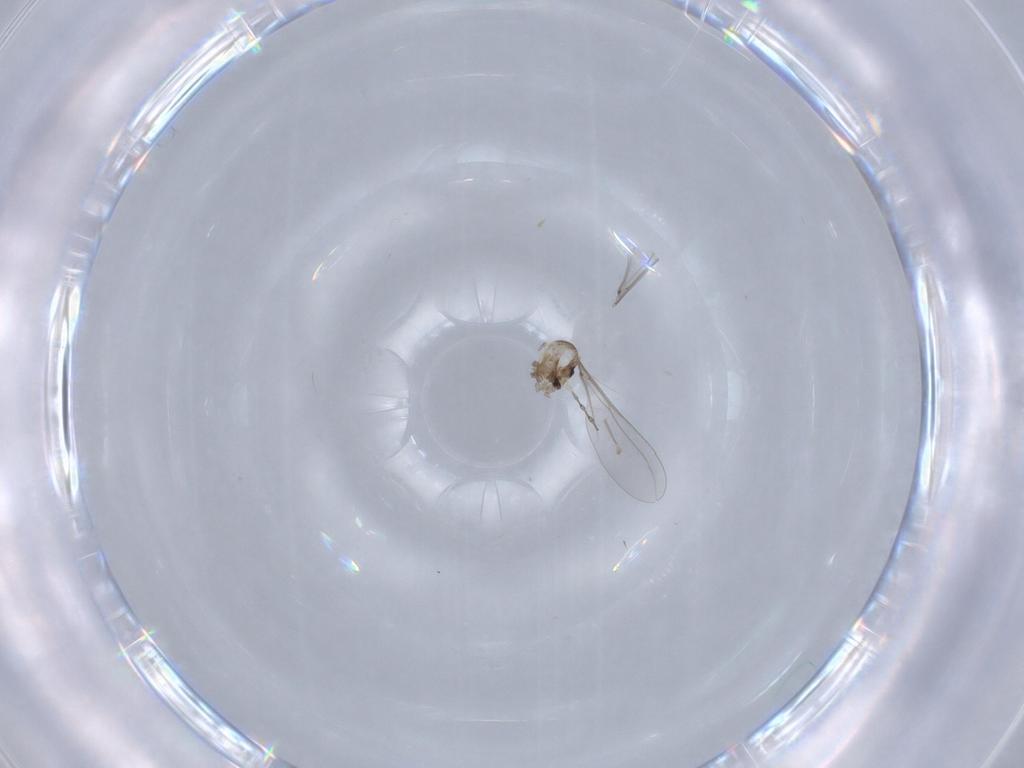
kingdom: Animalia
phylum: Arthropoda
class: Insecta
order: Diptera
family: Cecidomyiidae
